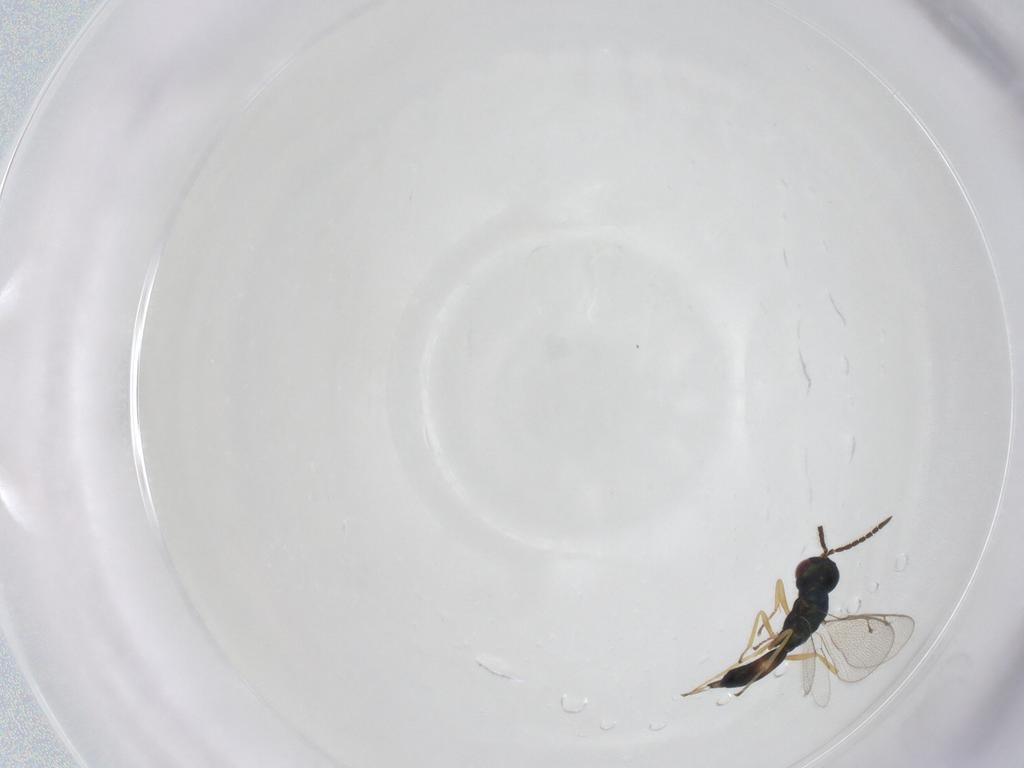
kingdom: Animalia
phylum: Arthropoda
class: Insecta
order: Hymenoptera
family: Pteromalidae
